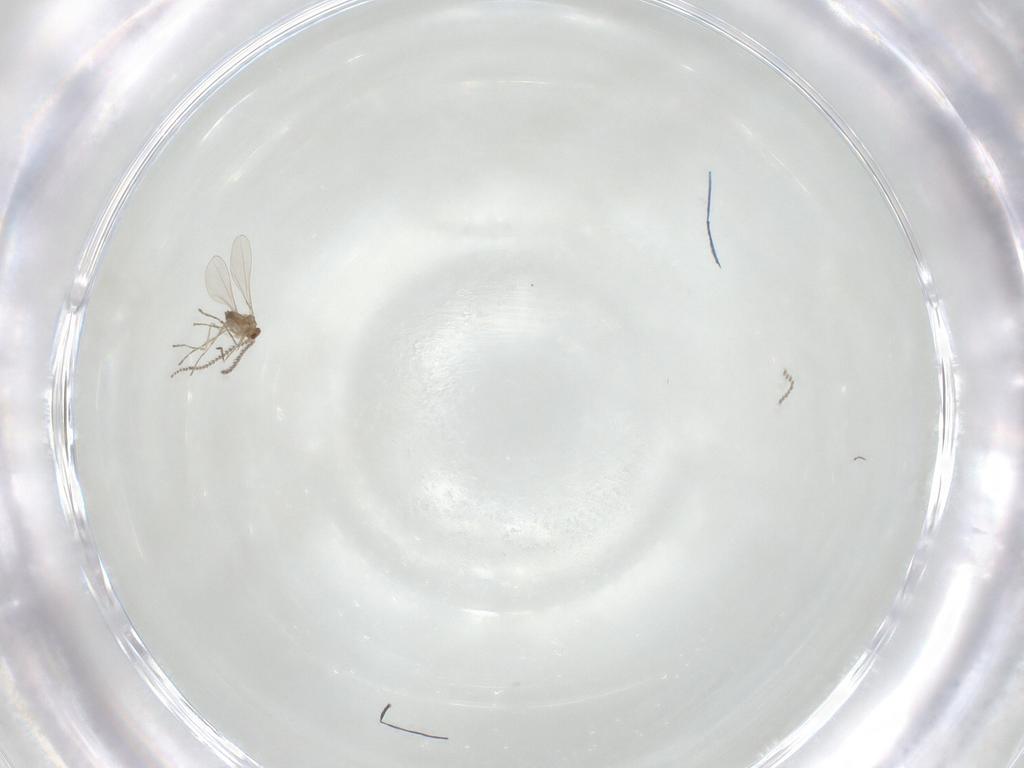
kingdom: Animalia
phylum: Arthropoda
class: Insecta
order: Diptera
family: Cecidomyiidae
